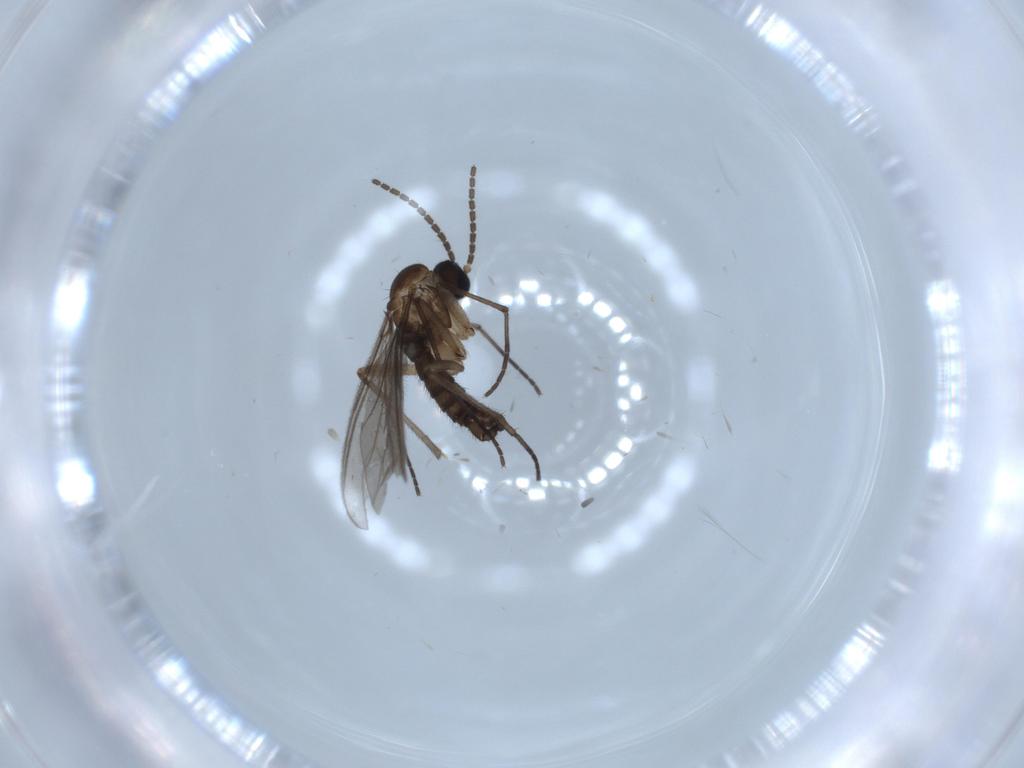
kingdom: Animalia
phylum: Arthropoda
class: Insecta
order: Diptera
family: Sciaridae
